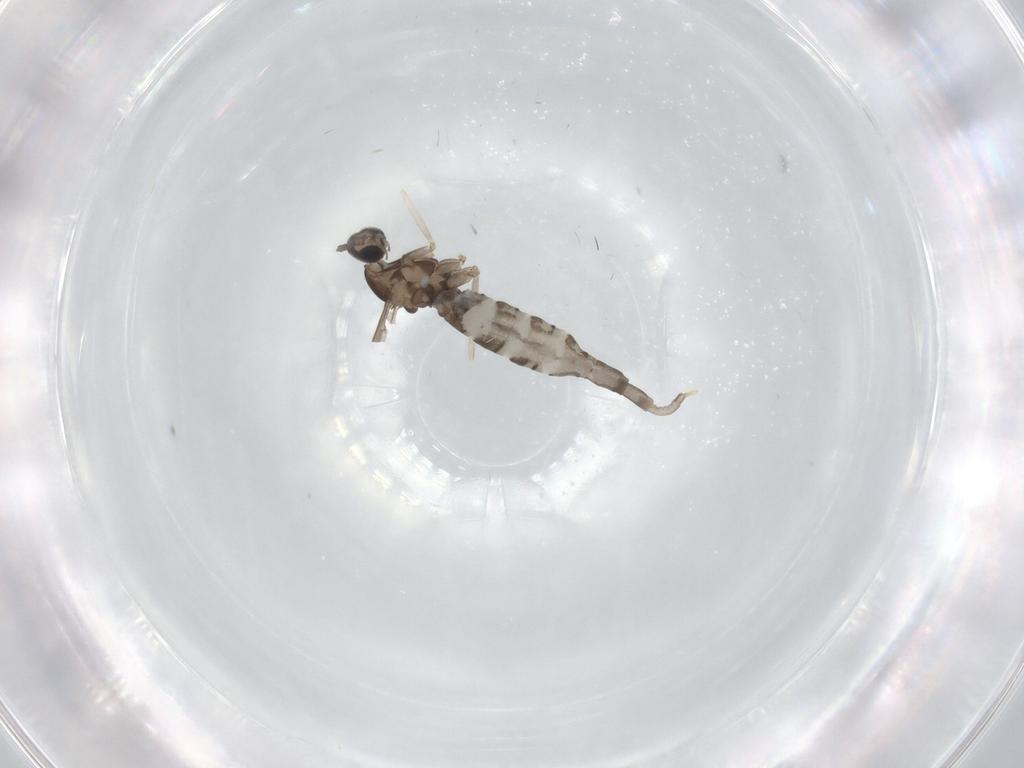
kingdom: Animalia
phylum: Arthropoda
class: Insecta
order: Diptera
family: Cecidomyiidae
